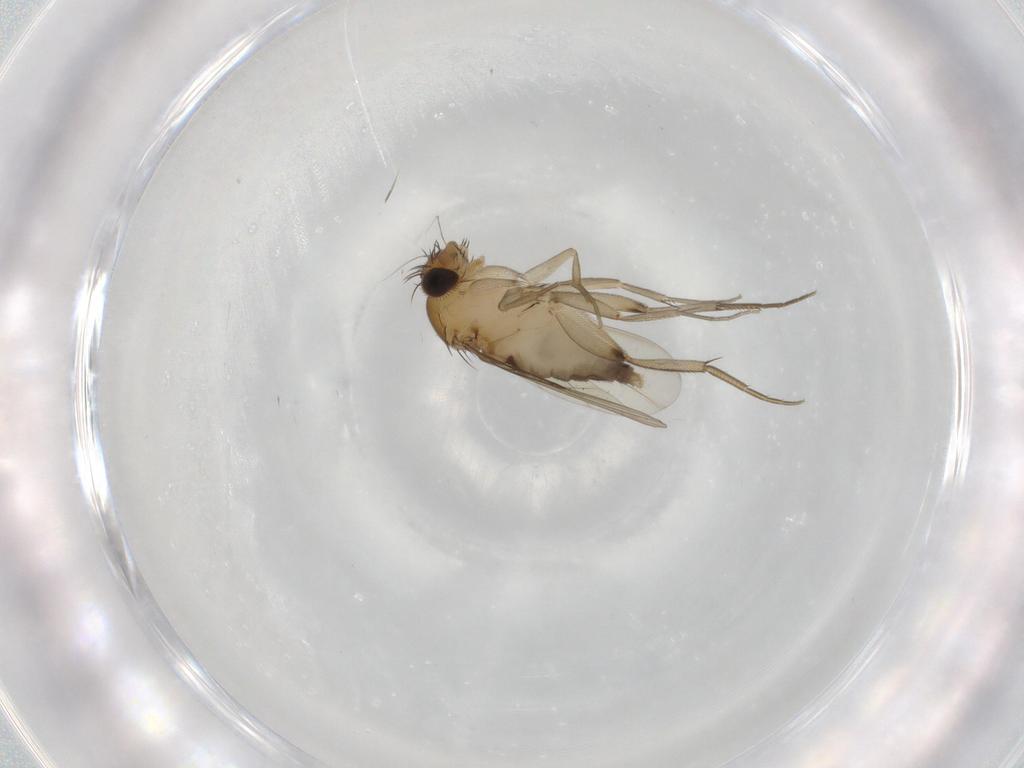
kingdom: Animalia
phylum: Arthropoda
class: Insecta
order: Diptera
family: Phoridae
